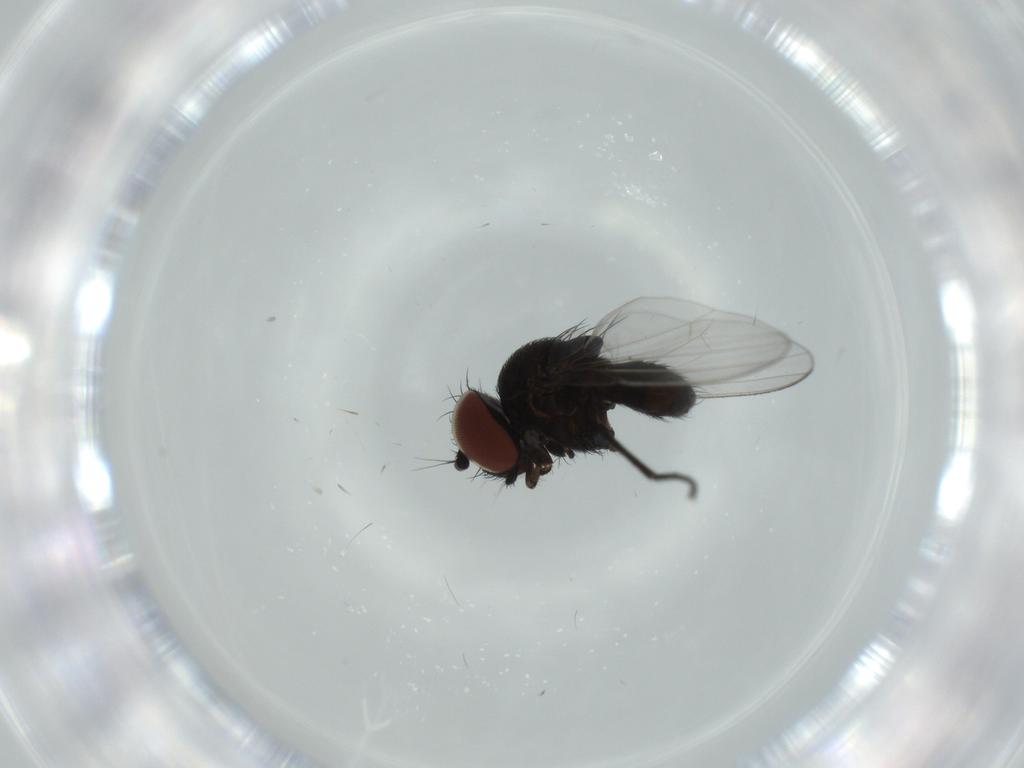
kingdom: Animalia
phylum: Arthropoda
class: Insecta
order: Diptera
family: Milichiidae
